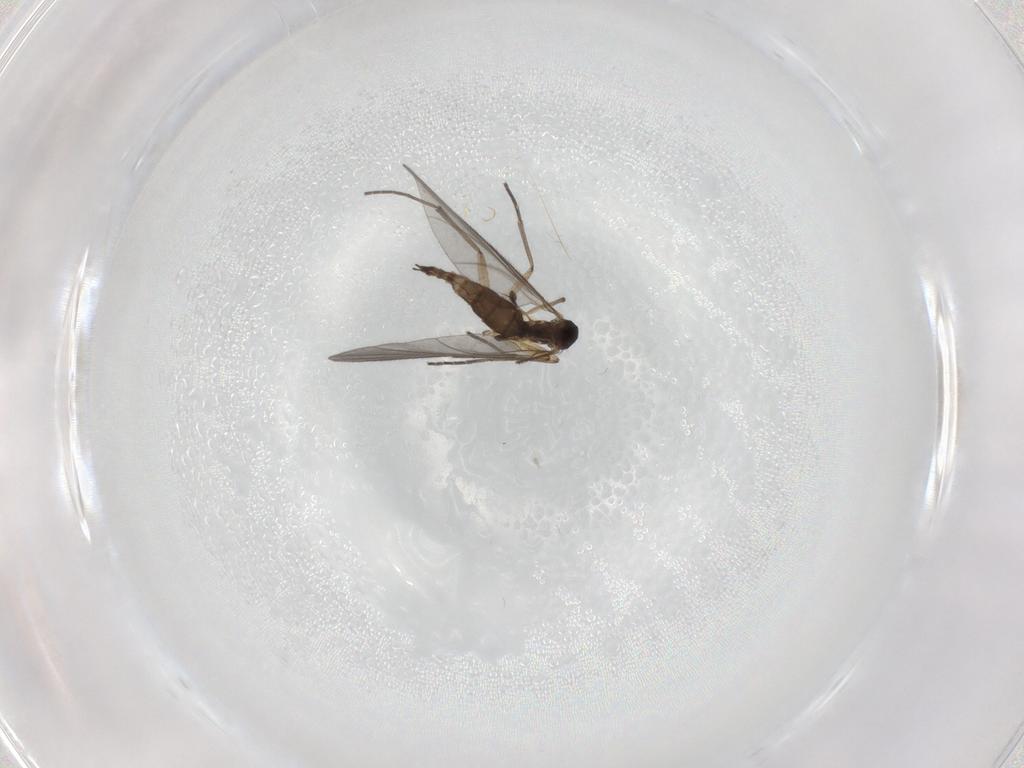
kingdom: Animalia
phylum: Arthropoda
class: Insecta
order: Diptera
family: Sciaridae
